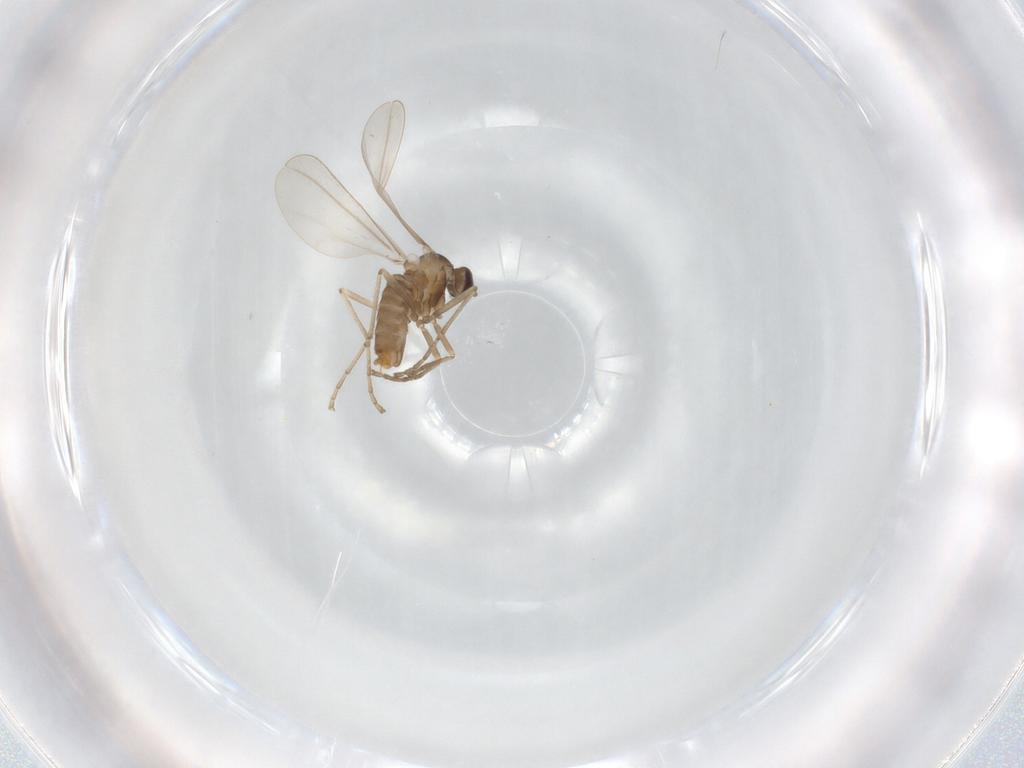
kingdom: Animalia
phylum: Arthropoda
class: Insecta
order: Diptera
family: Cecidomyiidae
